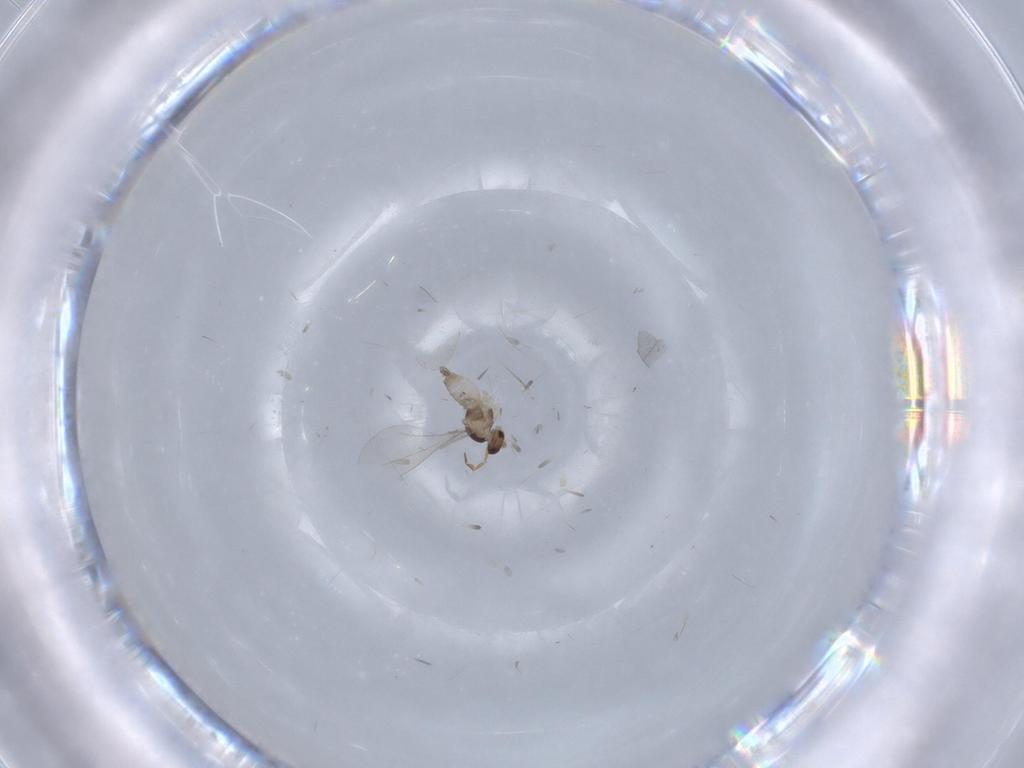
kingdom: Animalia
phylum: Arthropoda
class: Insecta
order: Diptera
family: Cecidomyiidae
